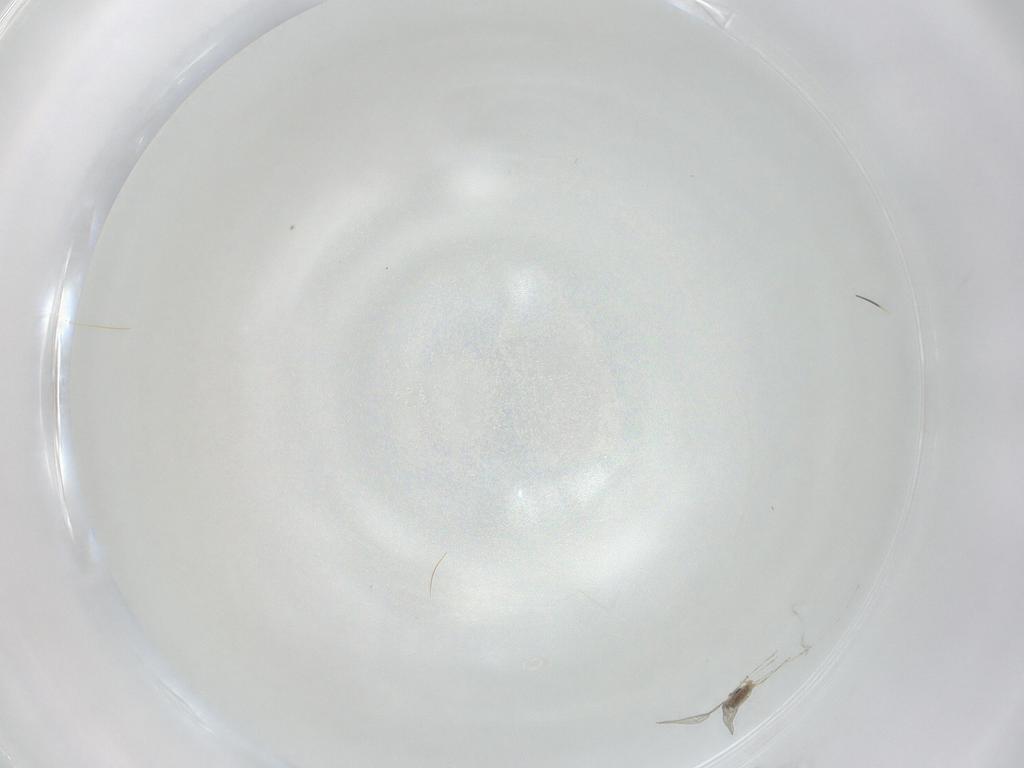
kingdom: Animalia
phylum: Arthropoda
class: Insecta
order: Diptera
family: Cecidomyiidae
